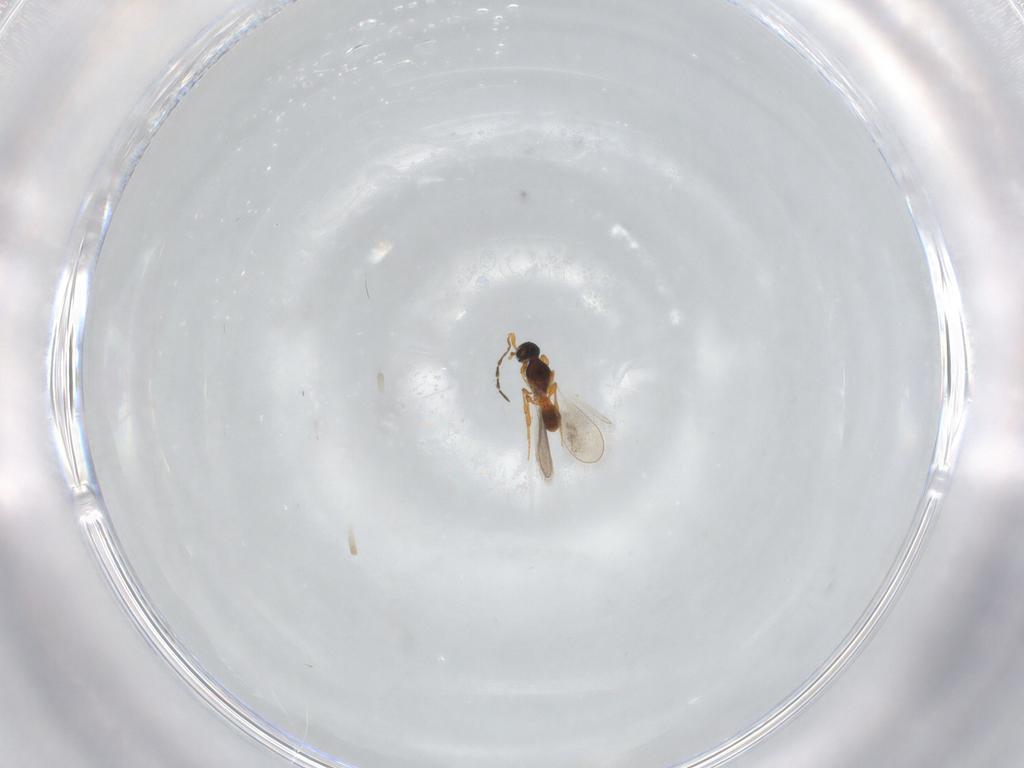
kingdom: Animalia
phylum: Arthropoda
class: Insecta
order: Hymenoptera
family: Platygastridae
